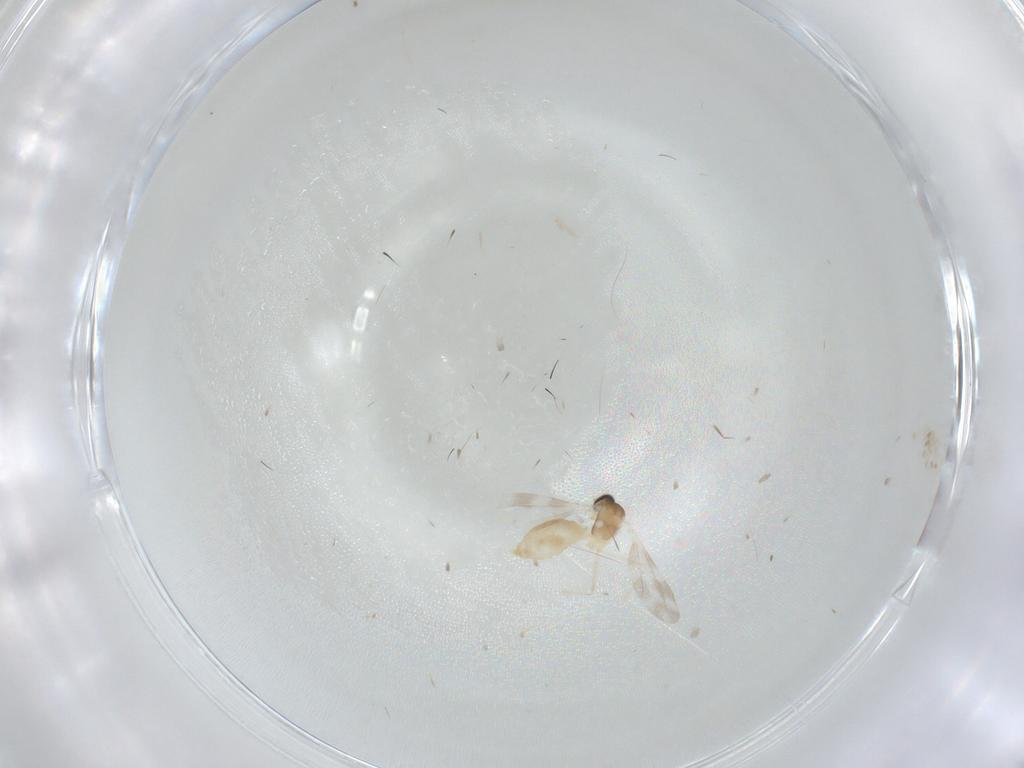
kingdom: Animalia
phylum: Arthropoda
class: Insecta
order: Diptera
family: Cecidomyiidae
